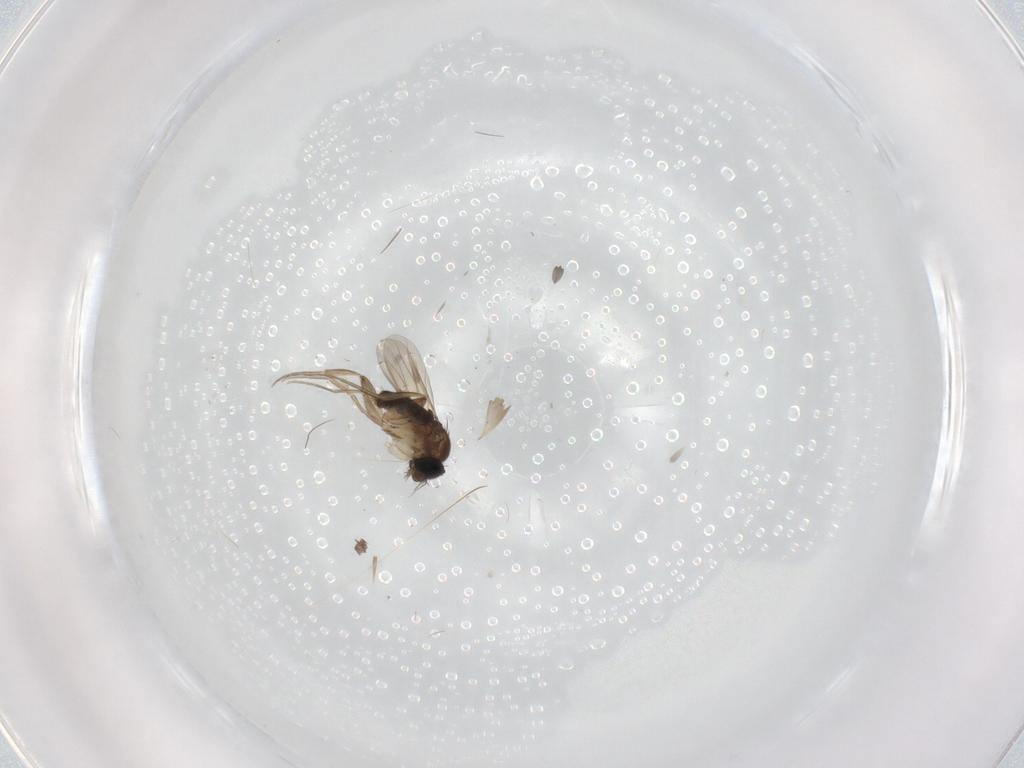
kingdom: Animalia
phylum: Arthropoda
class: Insecta
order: Diptera
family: Phoridae
